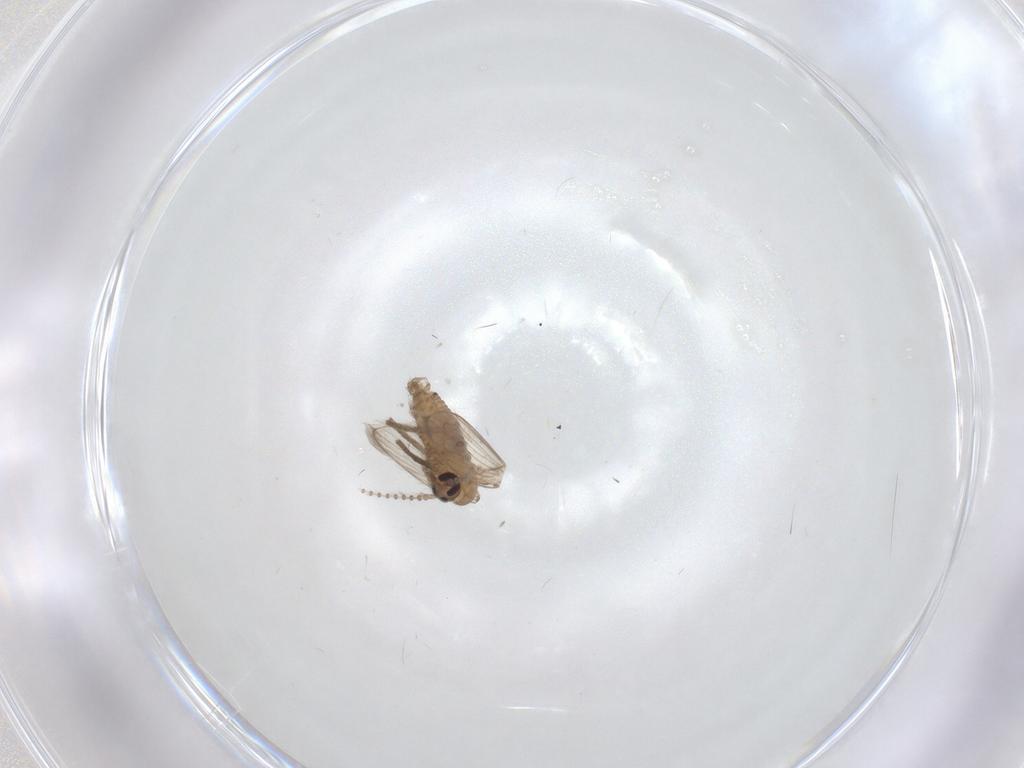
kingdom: Animalia
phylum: Arthropoda
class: Insecta
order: Diptera
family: Psychodidae
